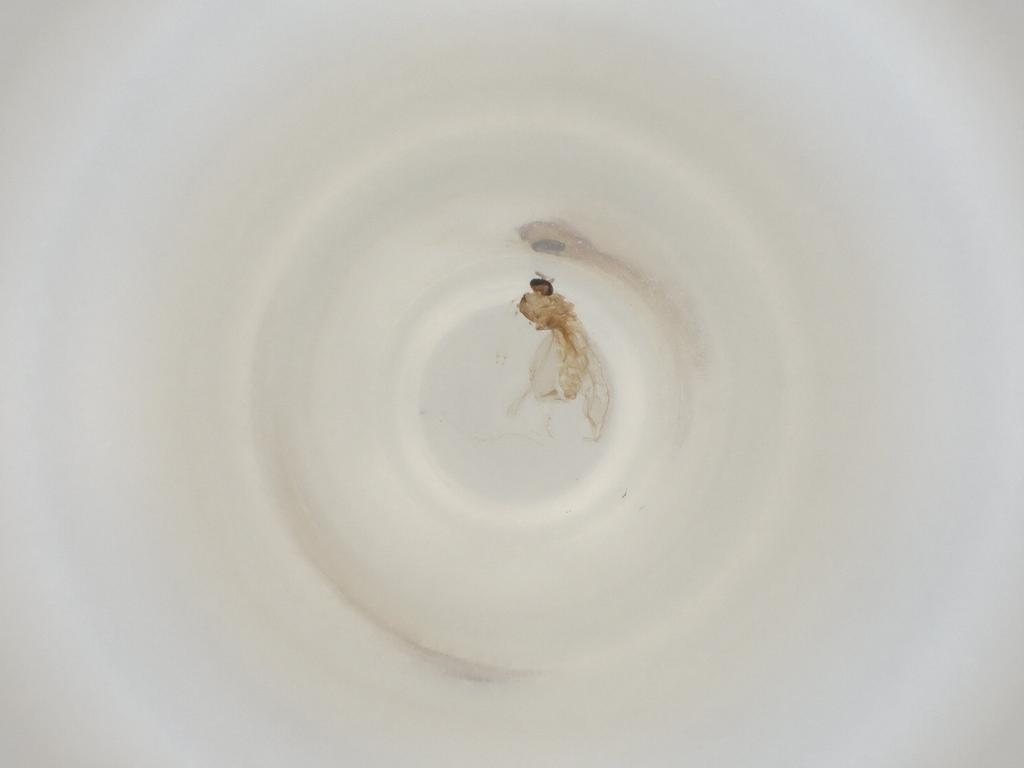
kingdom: Animalia
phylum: Arthropoda
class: Insecta
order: Diptera
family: Cecidomyiidae
